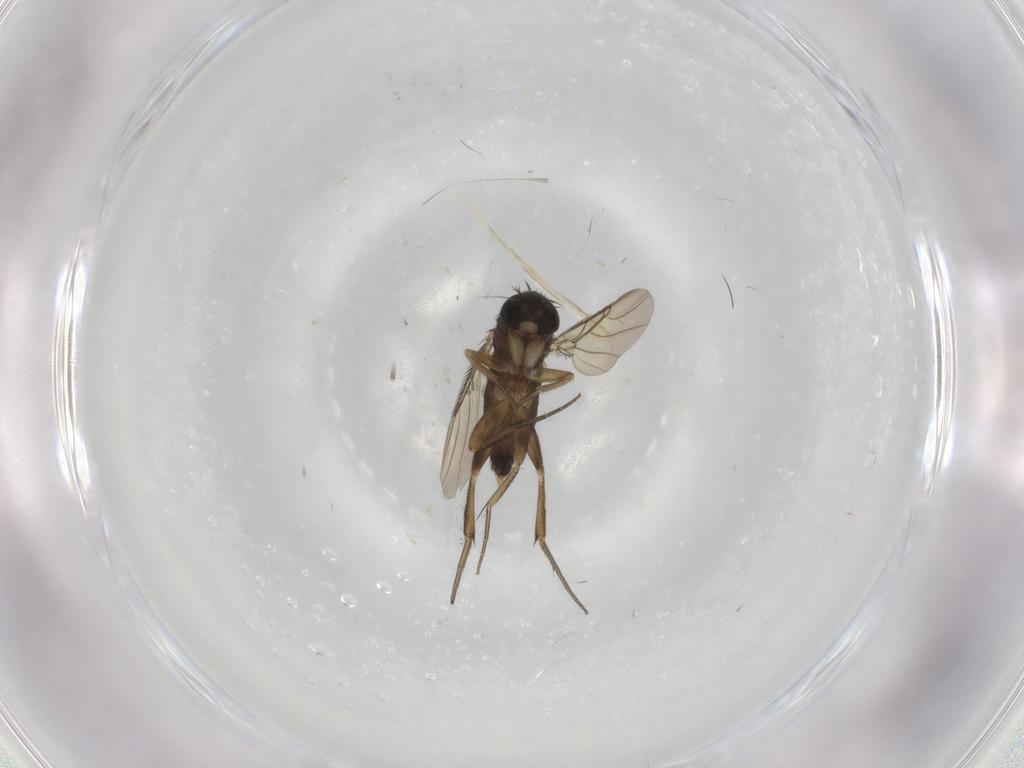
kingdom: Animalia
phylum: Arthropoda
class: Insecta
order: Diptera
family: Phoridae
